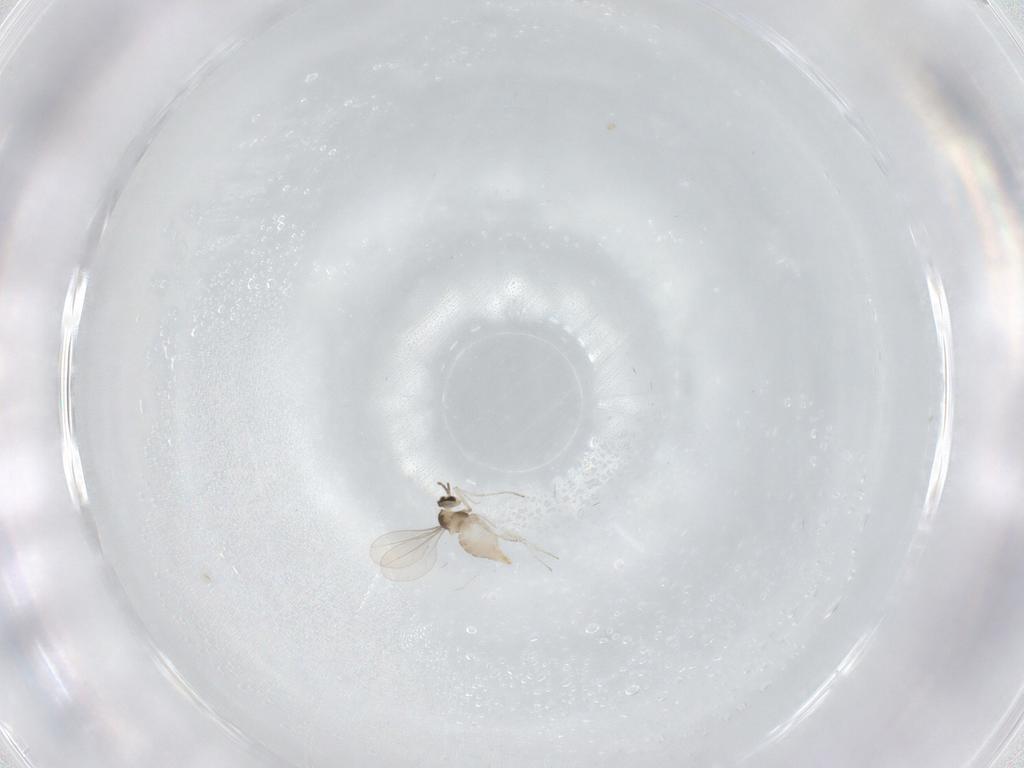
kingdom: Animalia
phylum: Arthropoda
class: Insecta
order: Diptera
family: Cecidomyiidae
